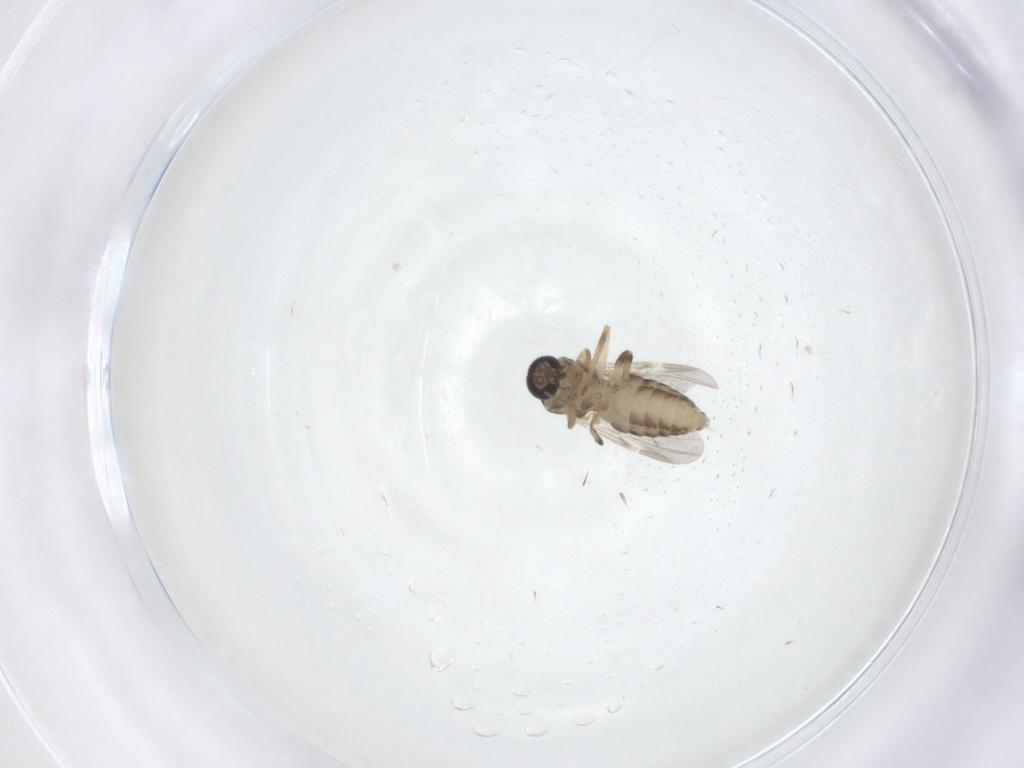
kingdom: Animalia
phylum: Arthropoda
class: Insecta
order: Diptera
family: Ceratopogonidae
